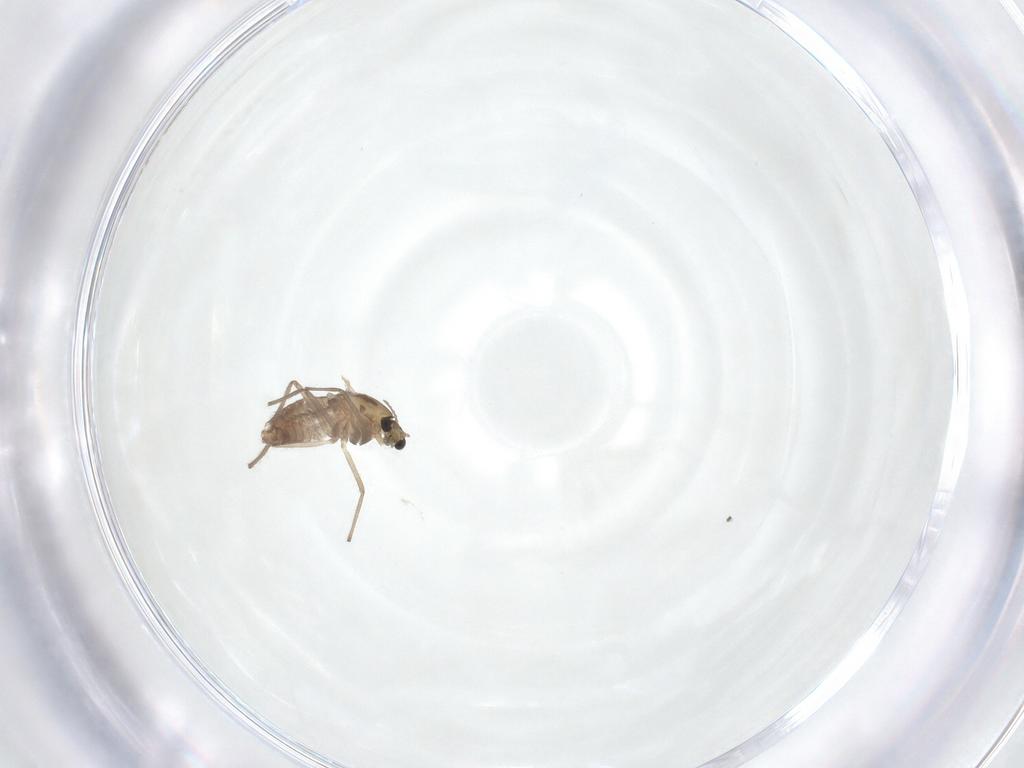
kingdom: Animalia
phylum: Arthropoda
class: Insecta
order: Diptera
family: Chironomidae
